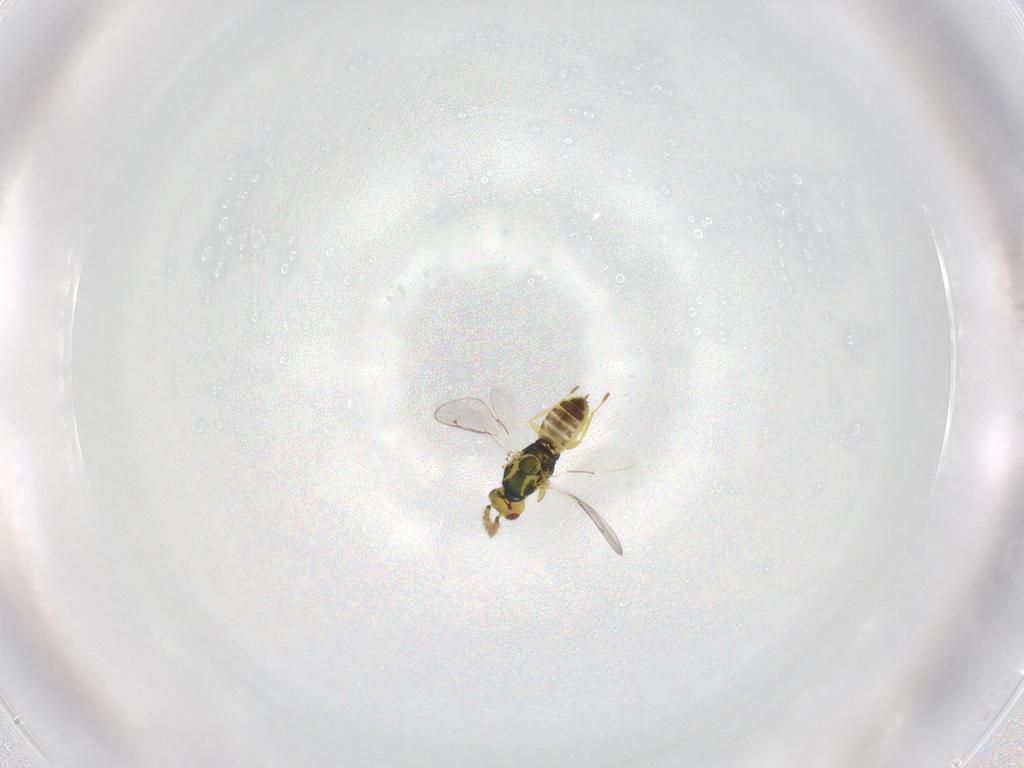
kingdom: Animalia
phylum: Arthropoda
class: Insecta
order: Hymenoptera
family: Eulophidae
